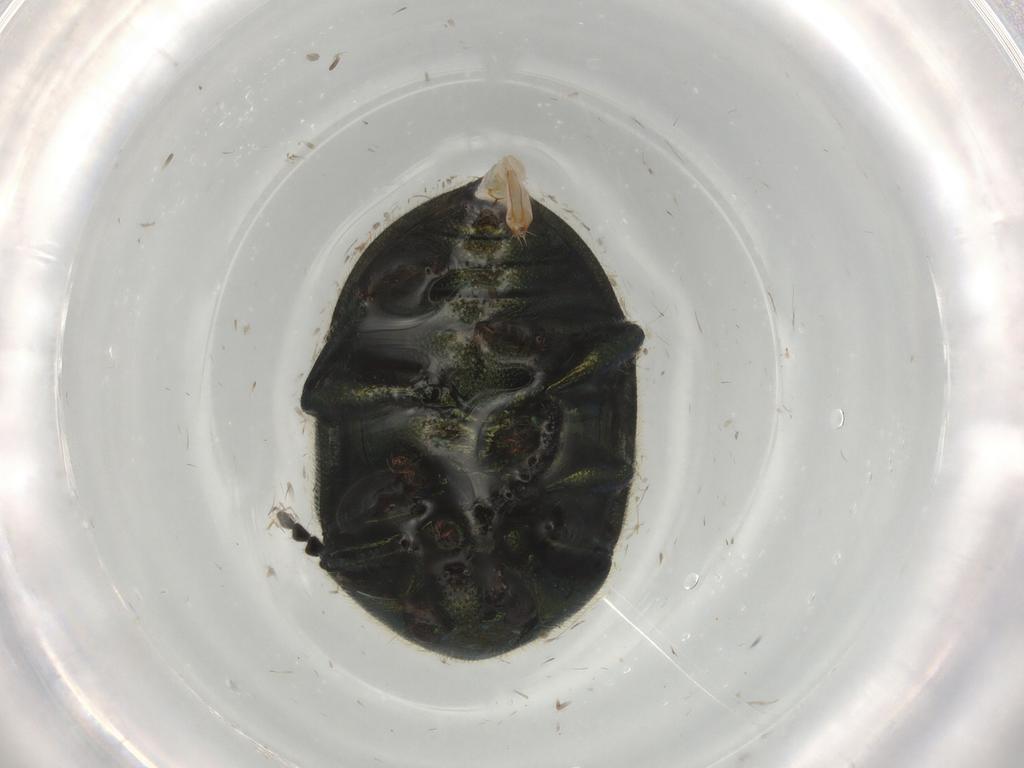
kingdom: Animalia
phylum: Arthropoda
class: Insecta
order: Coleoptera
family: Chrysomelidae
